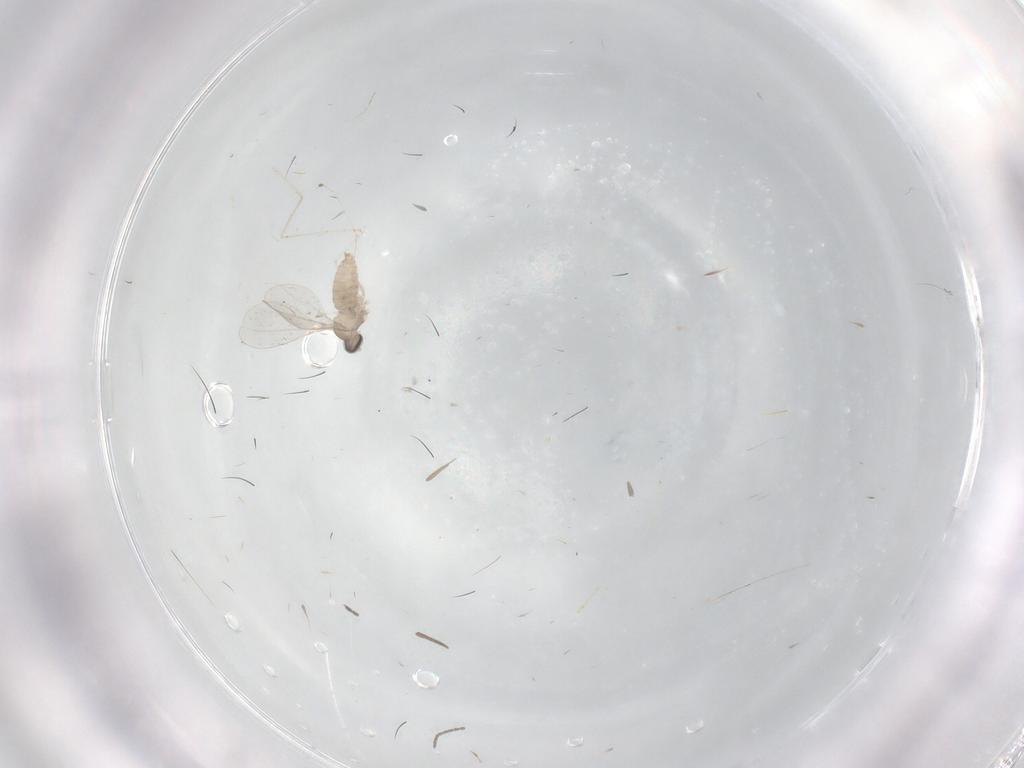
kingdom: Animalia
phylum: Arthropoda
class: Insecta
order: Diptera
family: Cecidomyiidae
